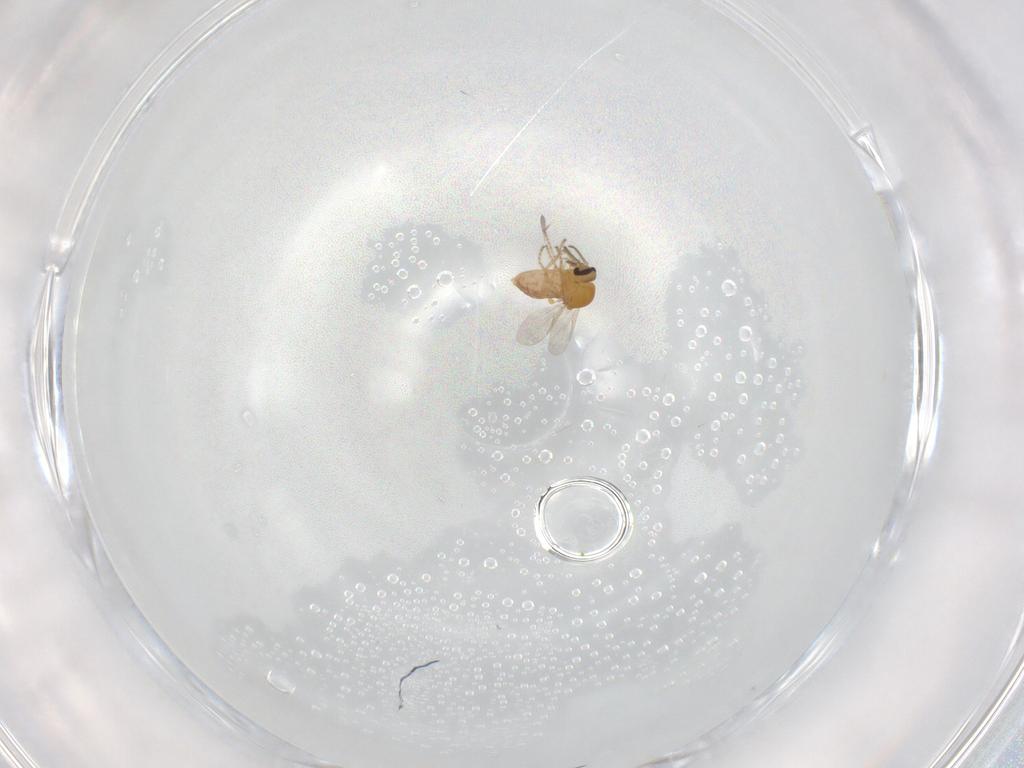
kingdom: Animalia
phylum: Arthropoda
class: Insecta
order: Diptera
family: Ceratopogonidae
